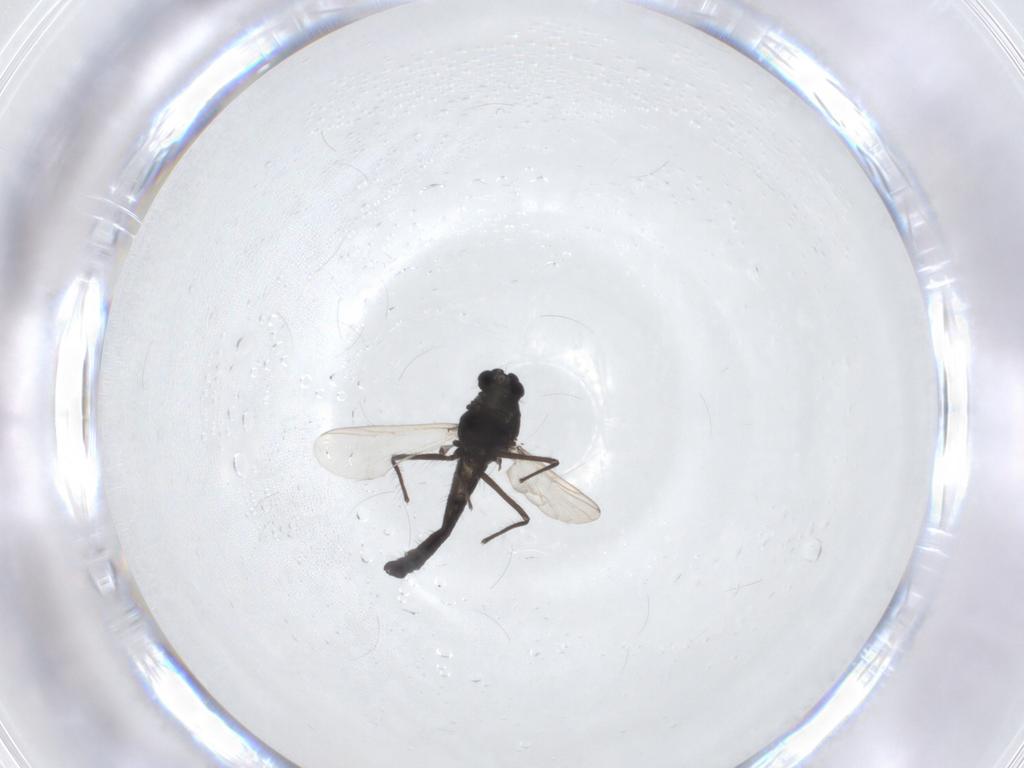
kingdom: Animalia
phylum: Arthropoda
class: Insecta
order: Diptera
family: Chironomidae
